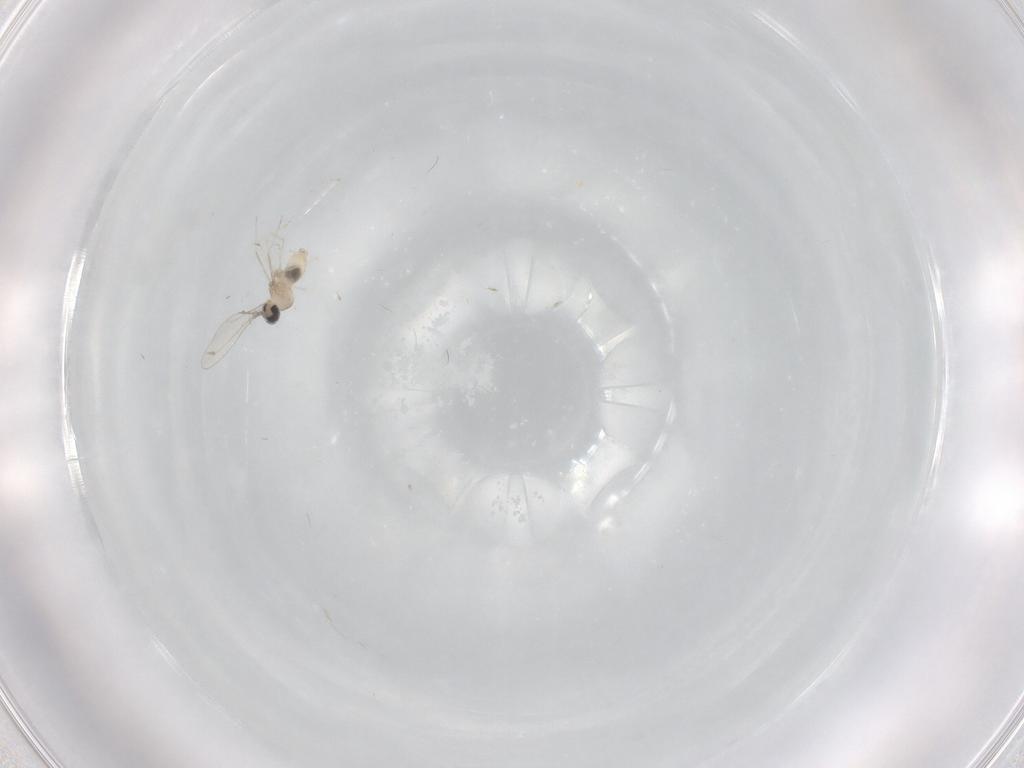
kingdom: Animalia
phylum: Arthropoda
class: Insecta
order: Diptera
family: Cecidomyiidae
